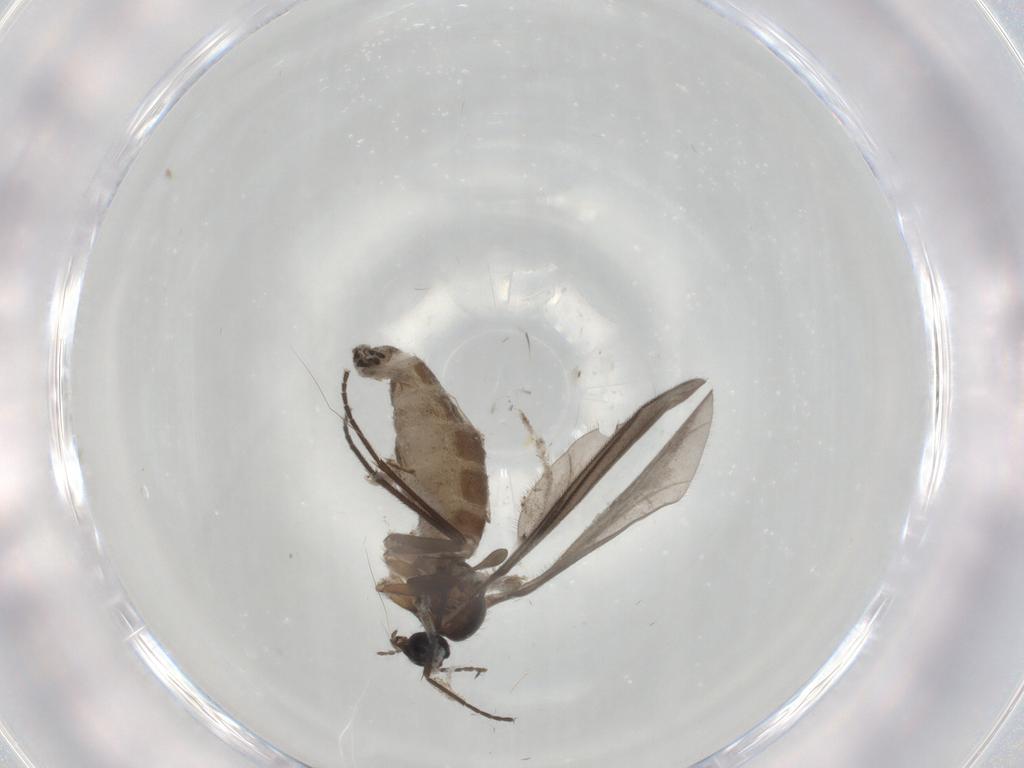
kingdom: Animalia
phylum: Arthropoda
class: Insecta
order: Diptera
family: Sciaridae
